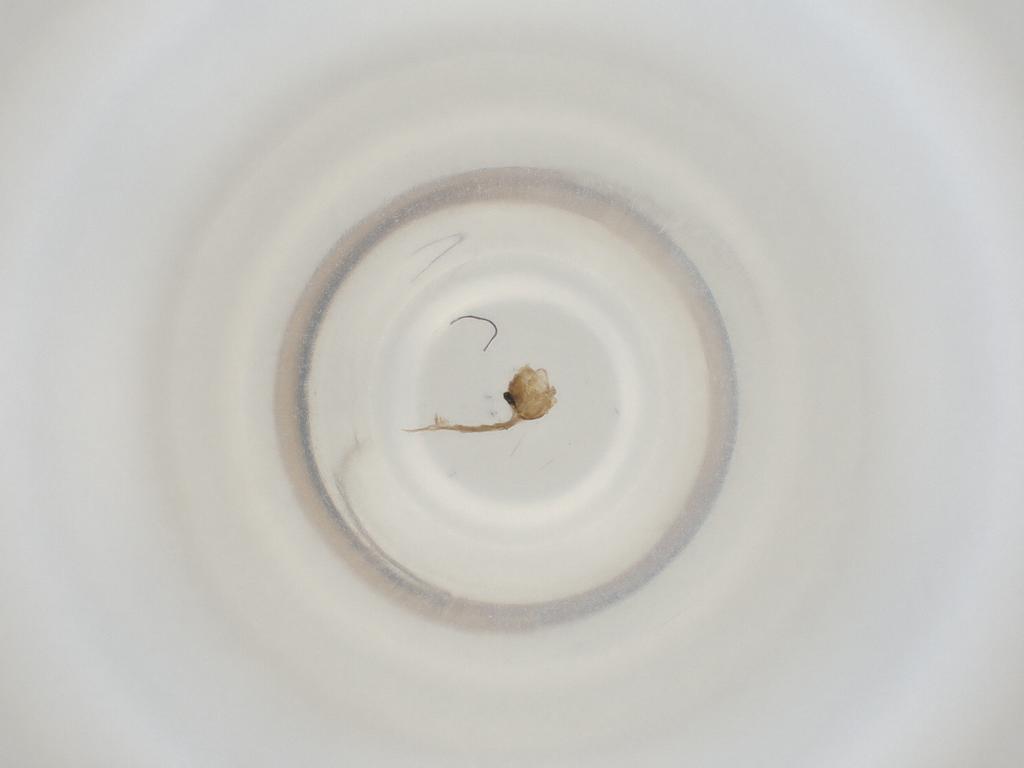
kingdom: Animalia
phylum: Arthropoda
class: Insecta
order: Diptera
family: Cecidomyiidae
